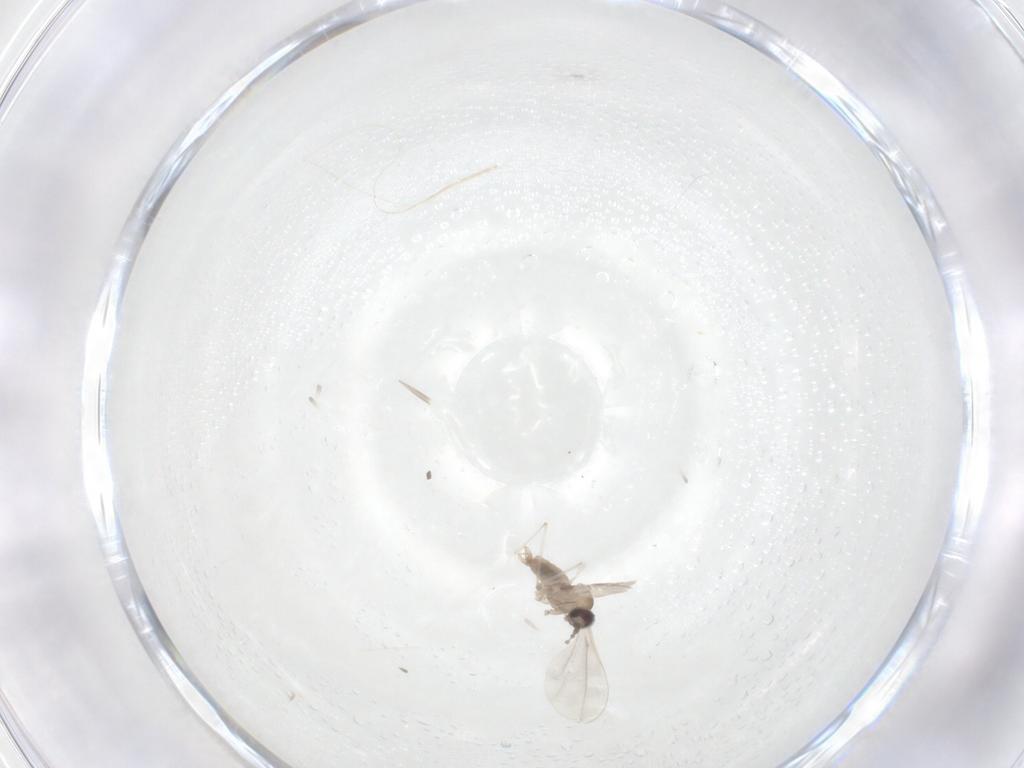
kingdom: Animalia
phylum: Arthropoda
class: Insecta
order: Diptera
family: Cecidomyiidae
